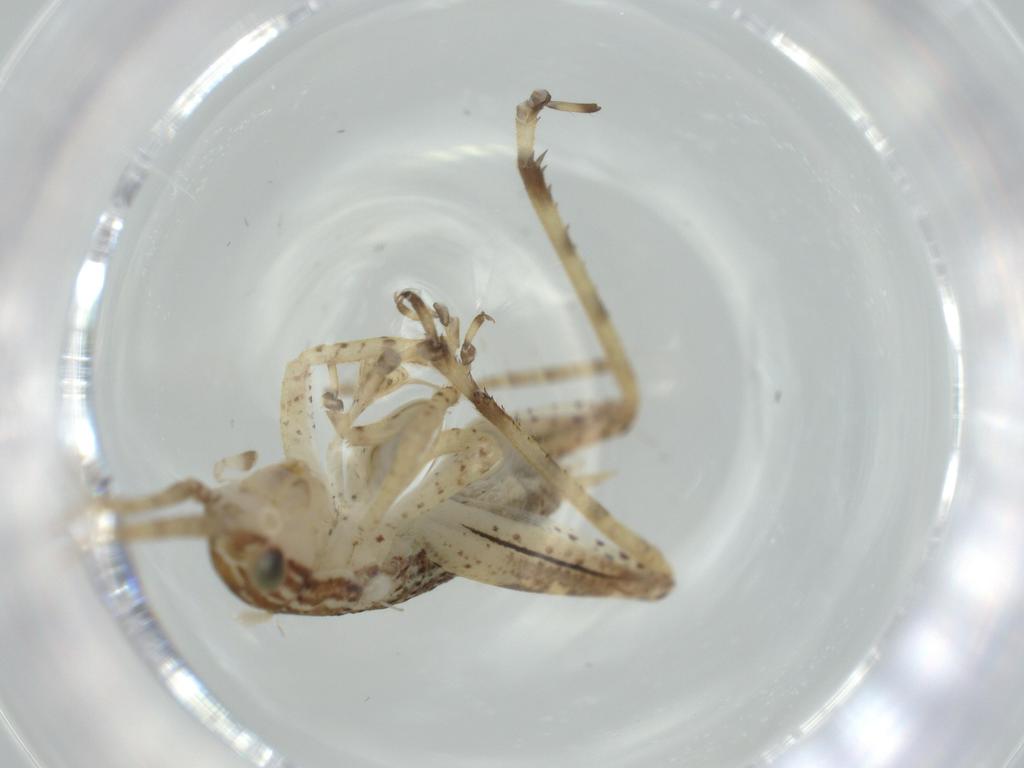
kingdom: Animalia
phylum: Arthropoda
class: Insecta
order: Orthoptera
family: Gryllidae
